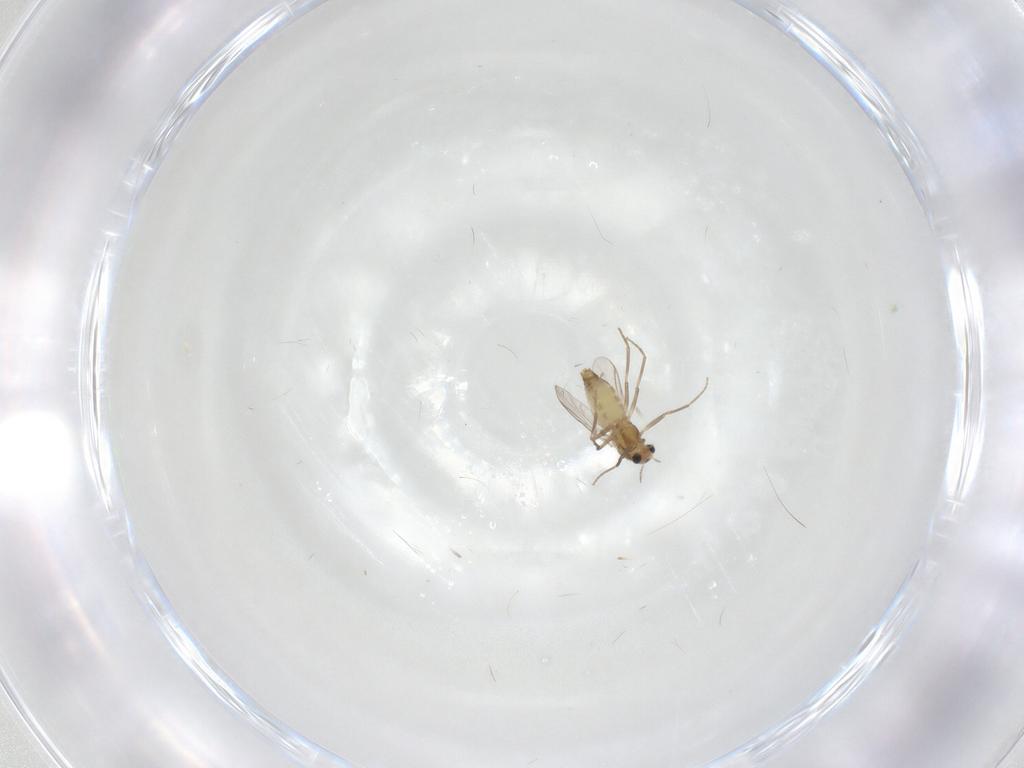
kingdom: Animalia
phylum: Arthropoda
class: Insecta
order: Diptera
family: Chironomidae
